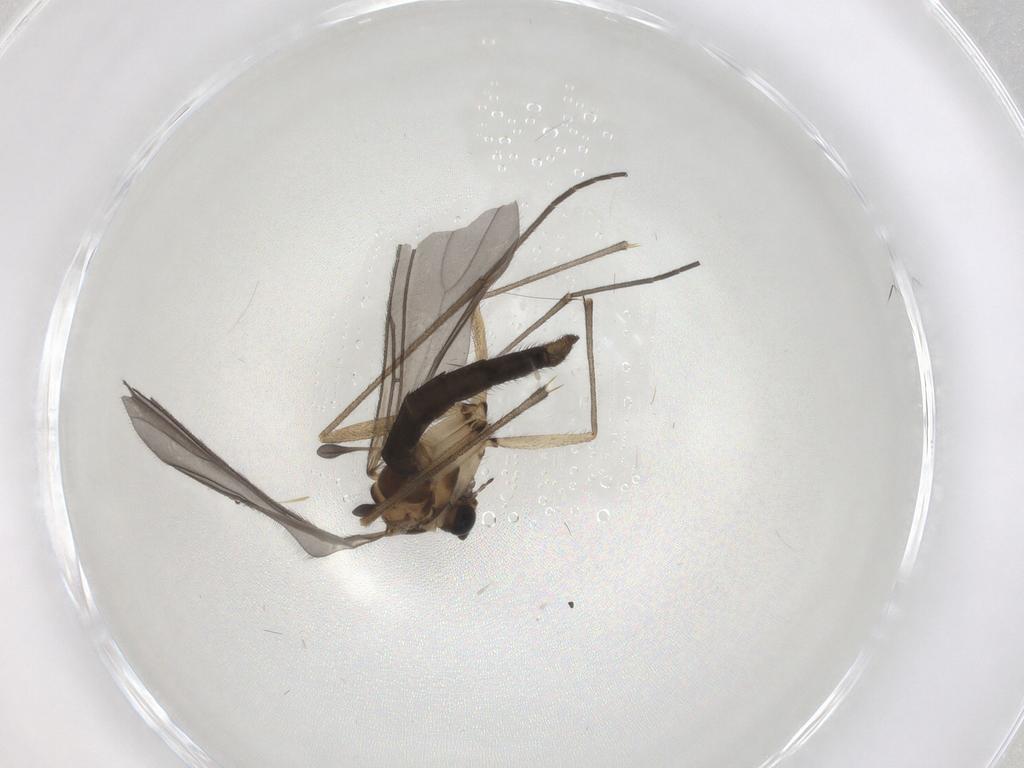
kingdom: Animalia
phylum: Arthropoda
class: Insecta
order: Diptera
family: Sciaridae
